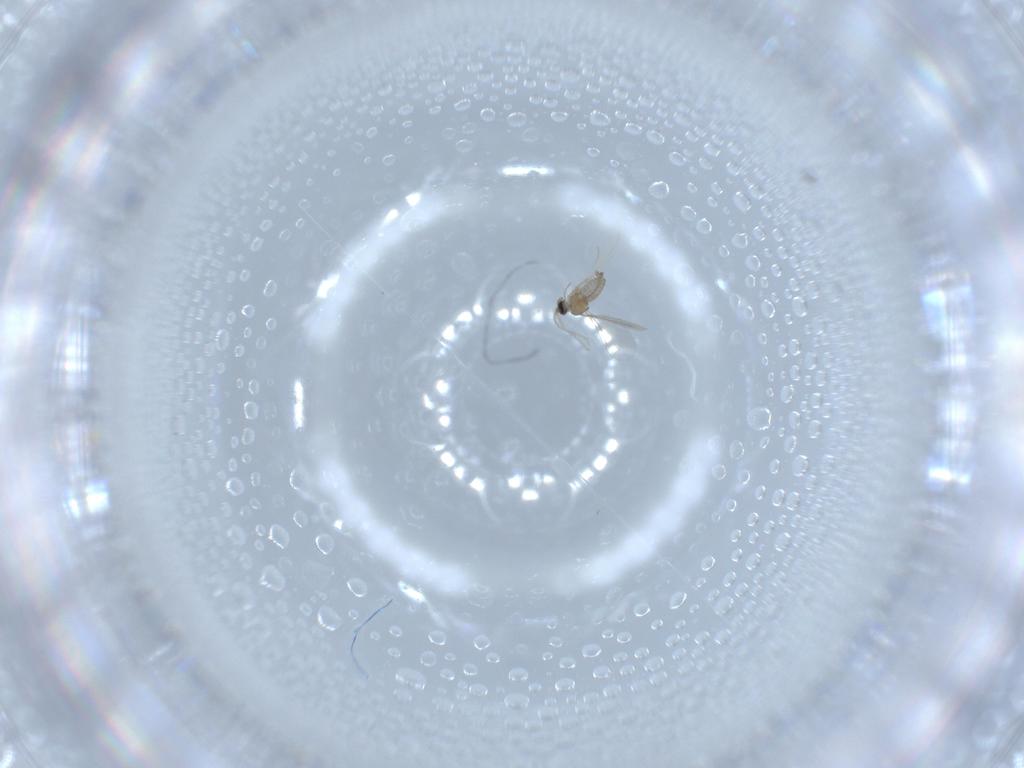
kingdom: Animalia
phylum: Arthropoda
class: Insecta
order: Diptera
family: Cecidomyiidae
